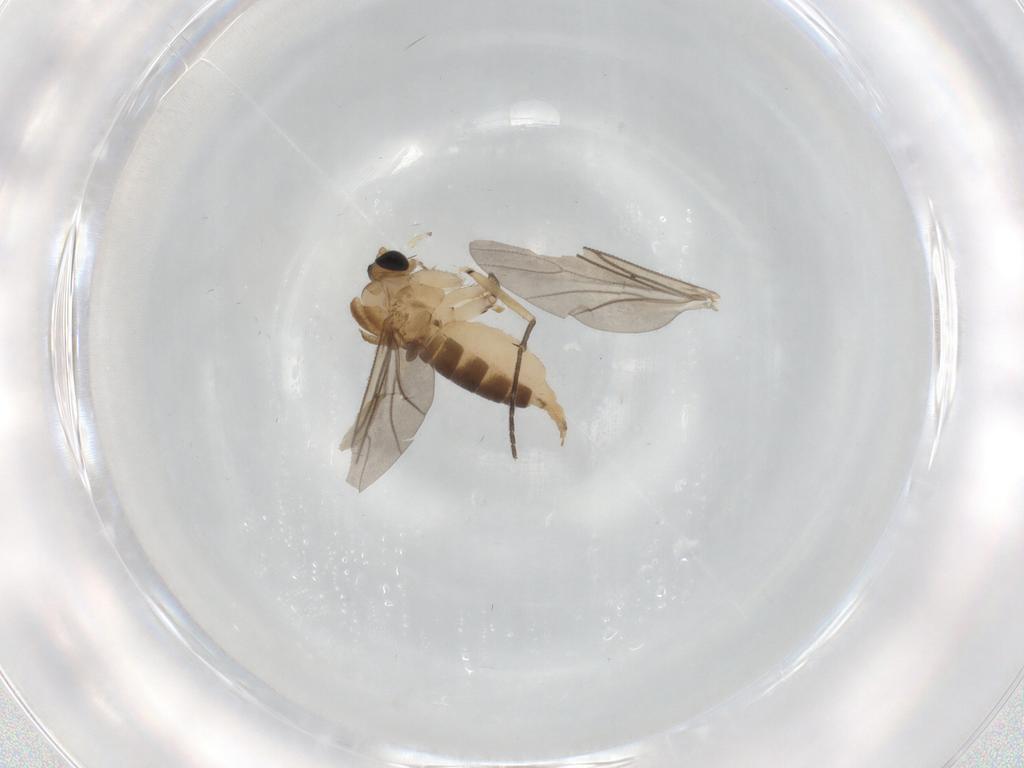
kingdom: Animalia
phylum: Arthropoda
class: Insecta
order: Diptera
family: Sciaridae
